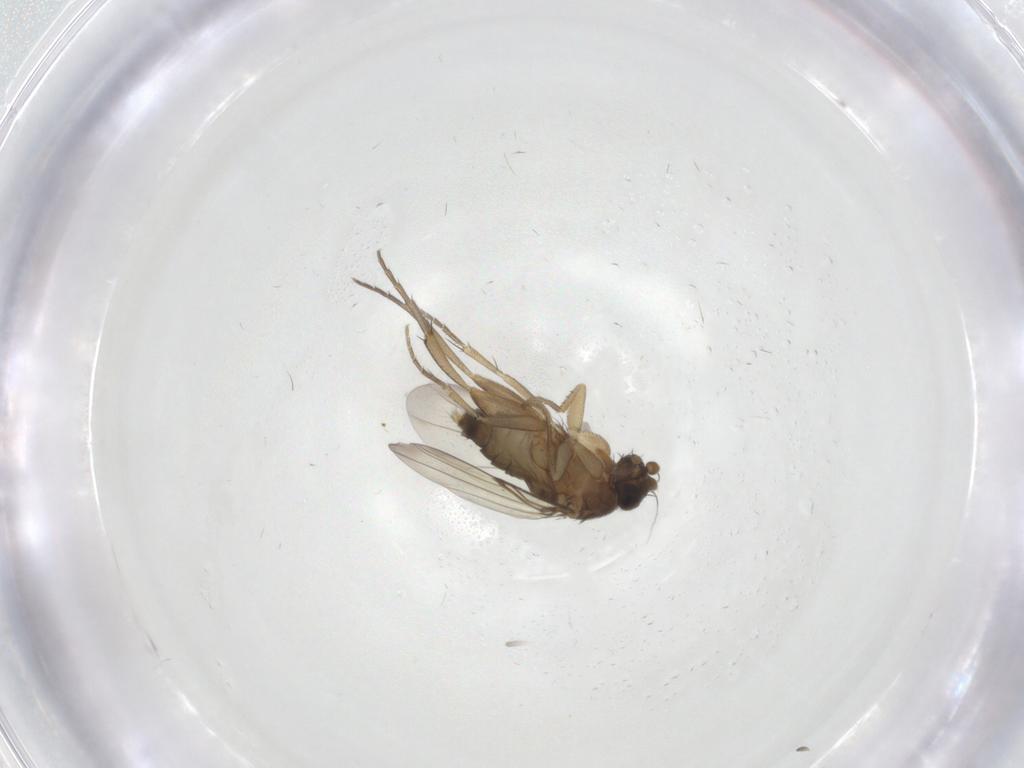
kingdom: Animalia
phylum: Arthropoda
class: Insecta
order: Diptera
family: Phoridae
